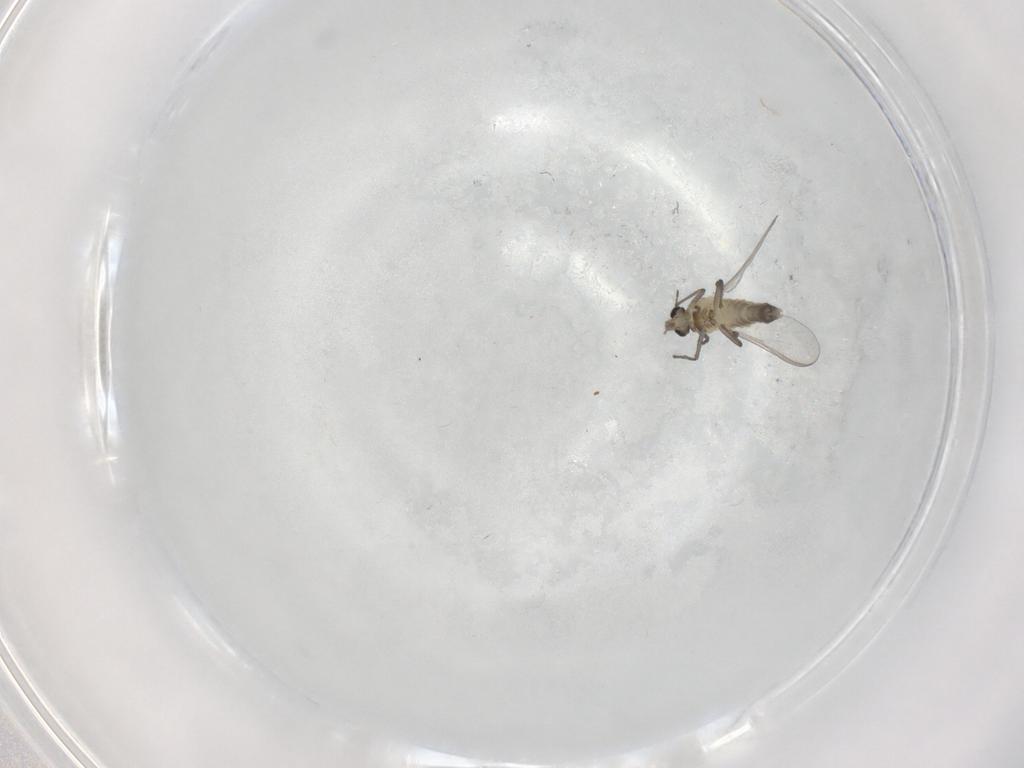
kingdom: Animalia
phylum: Arthropoda
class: Insecta
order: Diptera
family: Chironomidae
